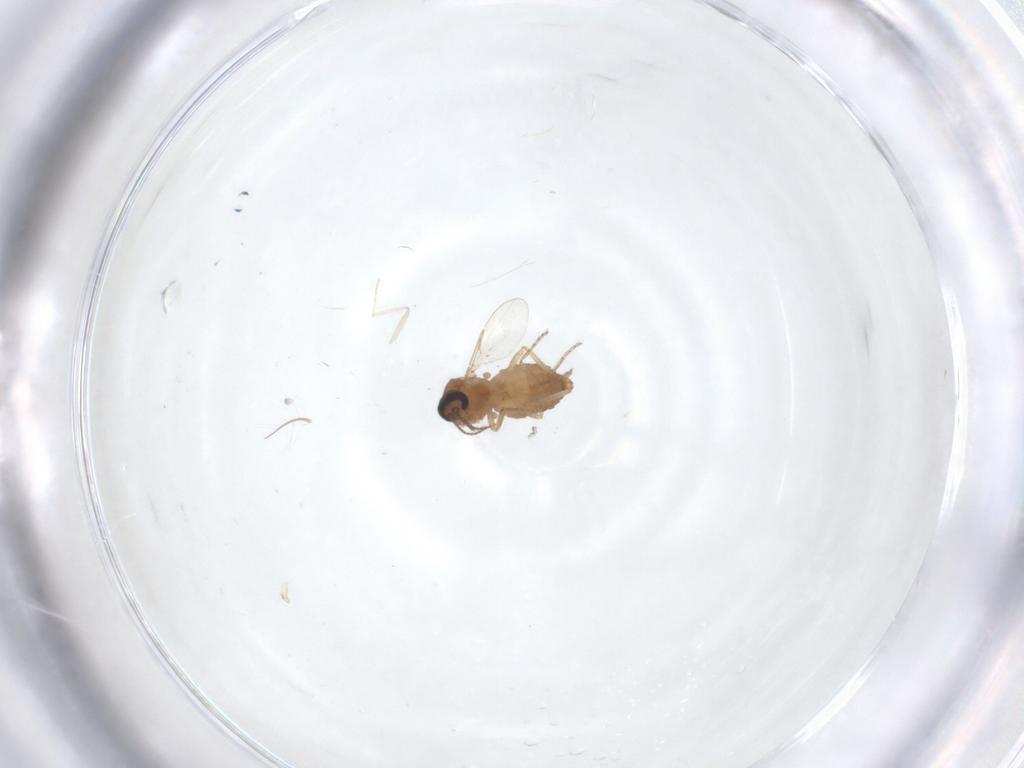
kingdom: Animalia
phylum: Arthropoda
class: Insecta
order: Diptera
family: Ceratopogonidae
